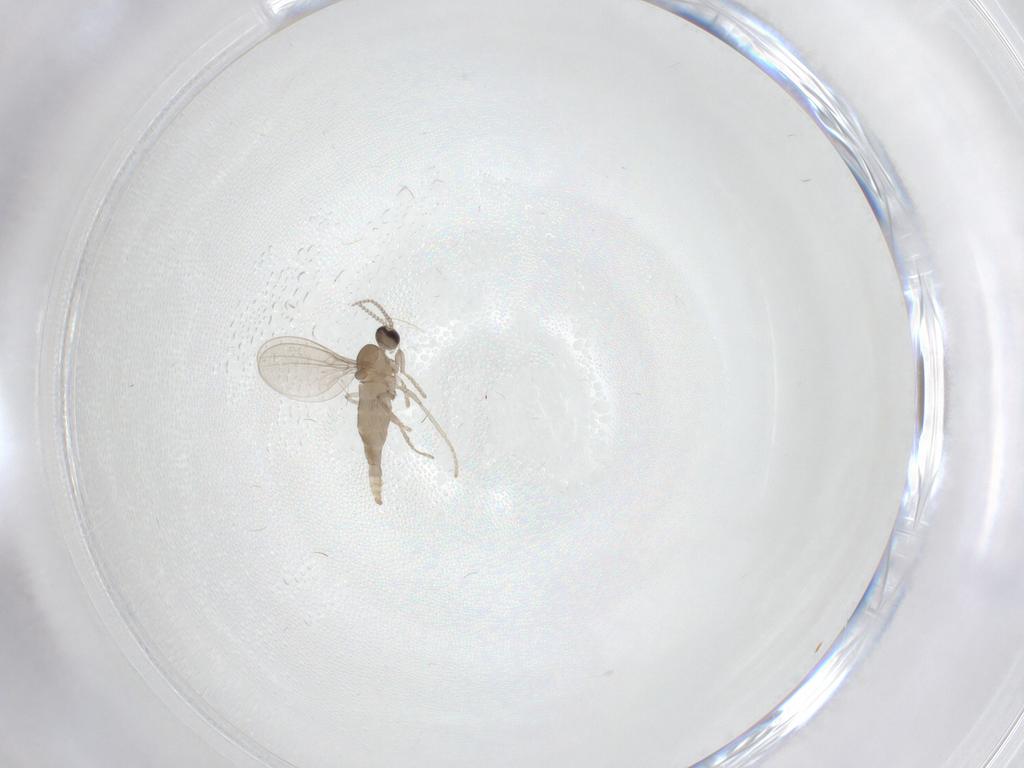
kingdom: Animalia
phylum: Arthropoda
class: Insecta
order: Diptera
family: Cecidomyiidae
